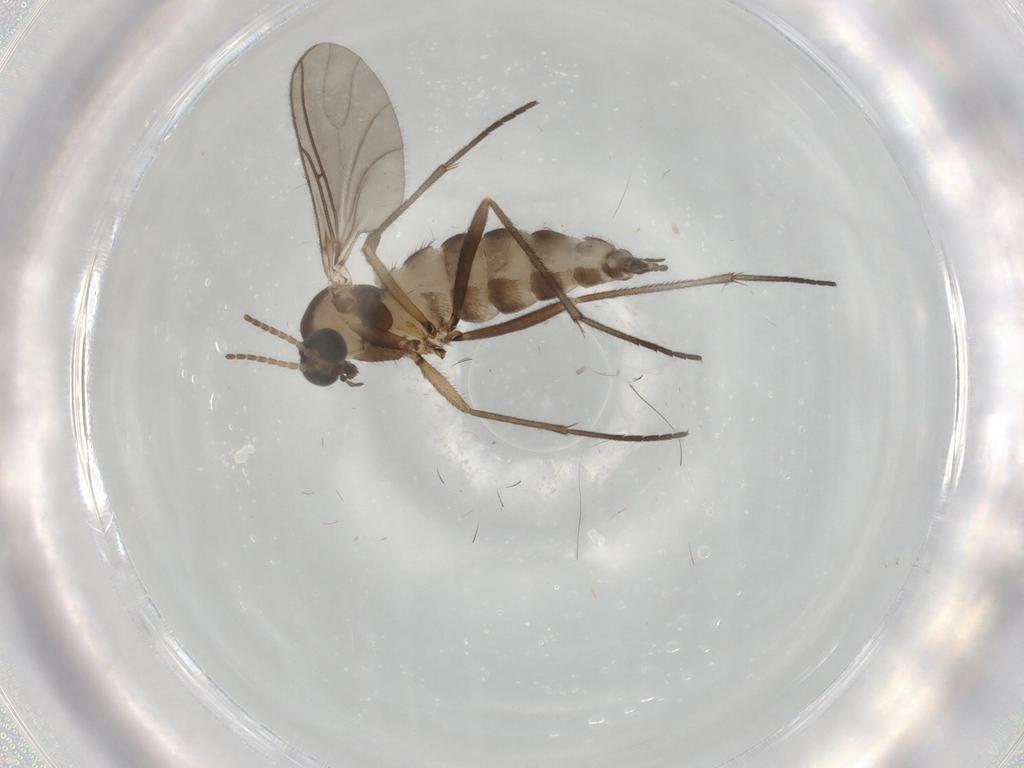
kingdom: Animalia
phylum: Arthropoda
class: Insecta
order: Diptera
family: Sciaridae
